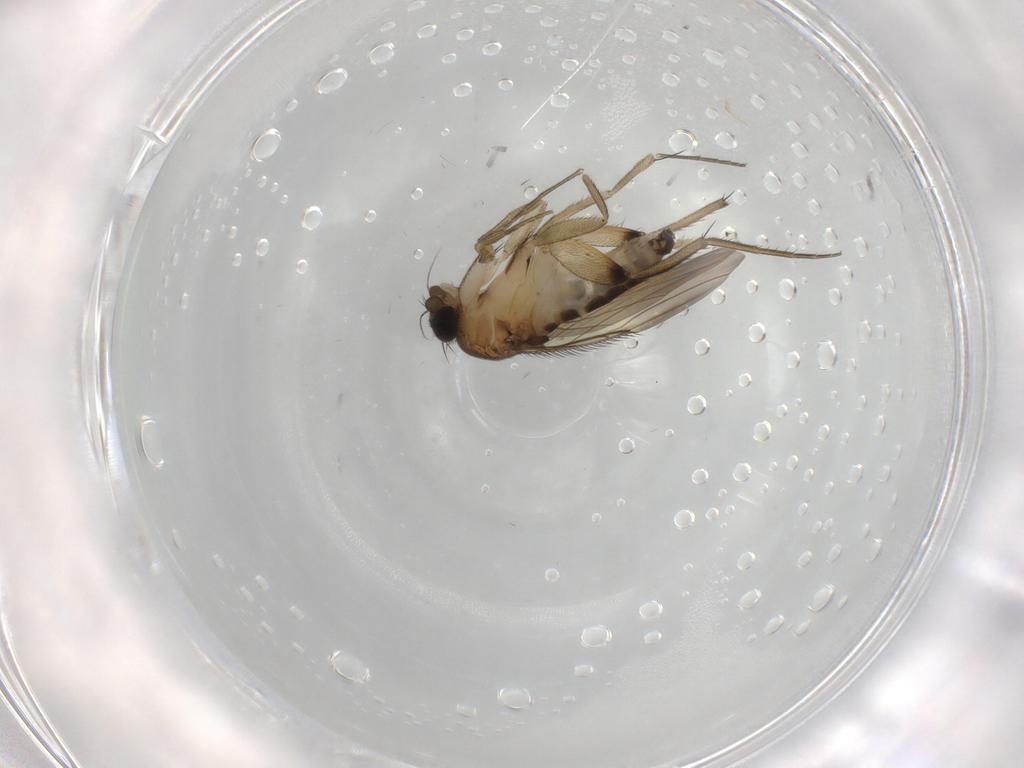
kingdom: Animalia
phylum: Arthropoda
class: Insecta
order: Diptera
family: Phoridae
